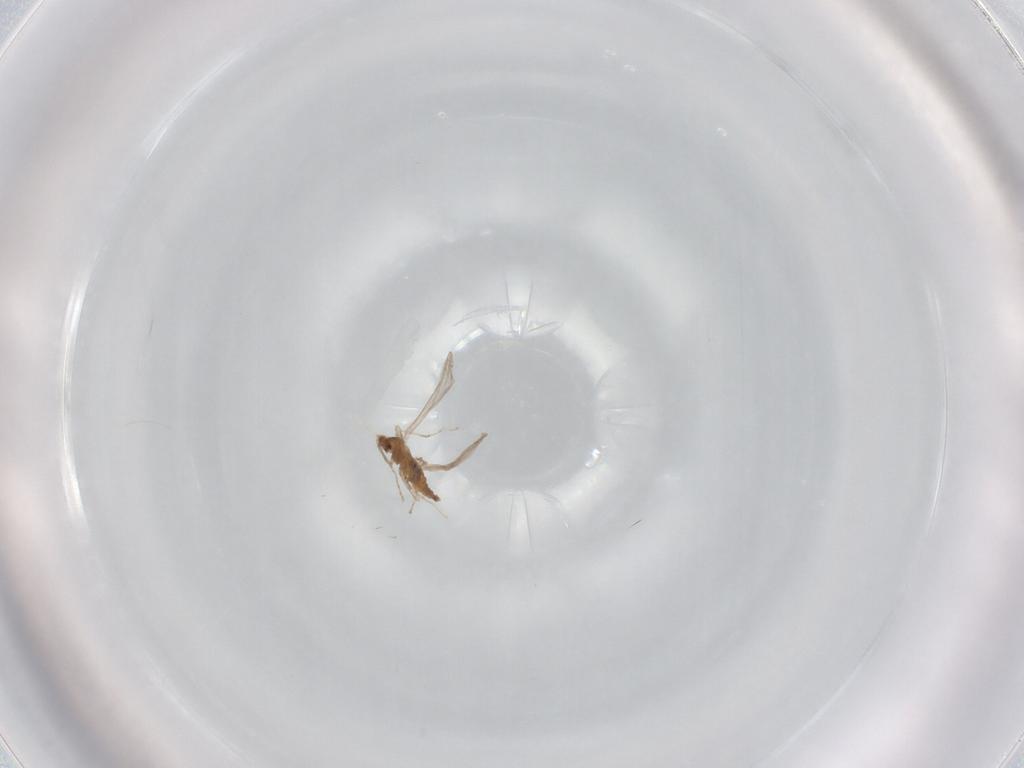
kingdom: Animalia
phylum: Arthropoda
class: Insecta
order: Diptera
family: Cecidomyiidae
